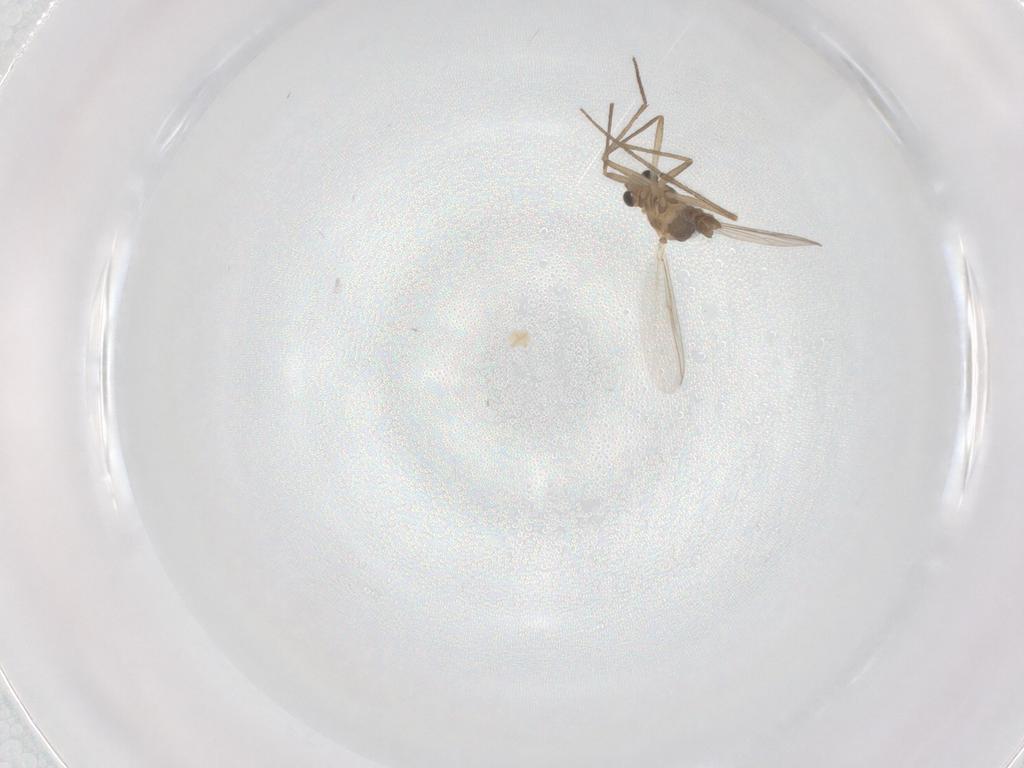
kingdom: Animalia
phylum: Arthropoda
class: Insecta
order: Diptera
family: Chironomidae
